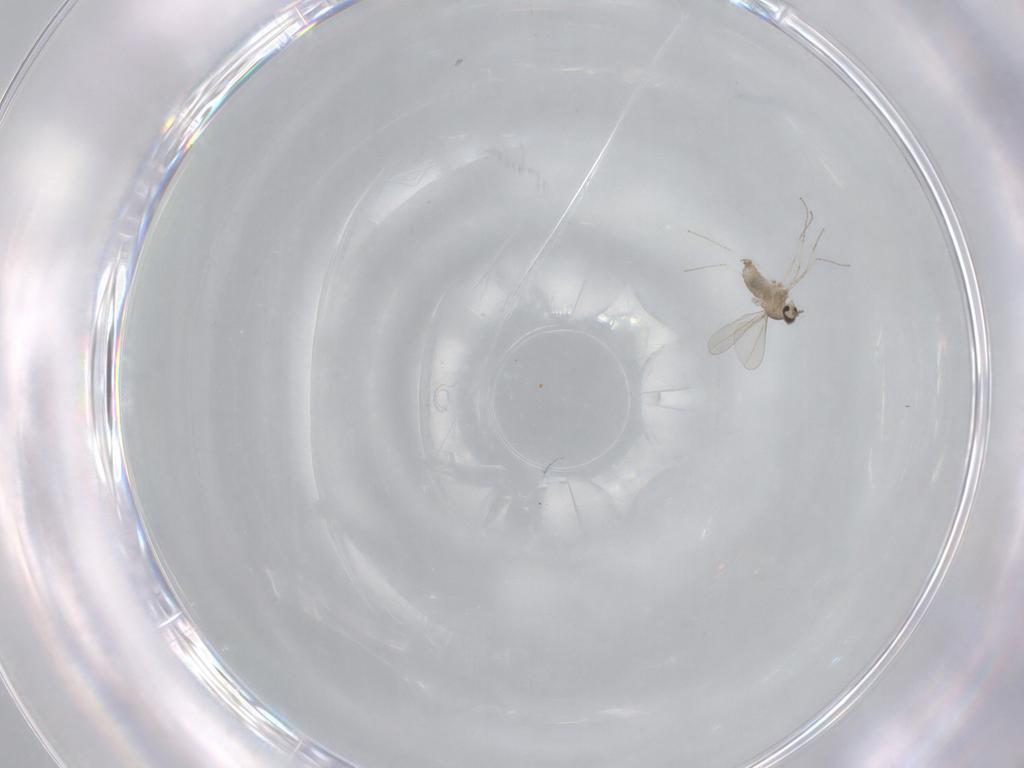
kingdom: Animalia
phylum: Arthropoda
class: Insecta
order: Diptera
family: Cecidomyiidae
